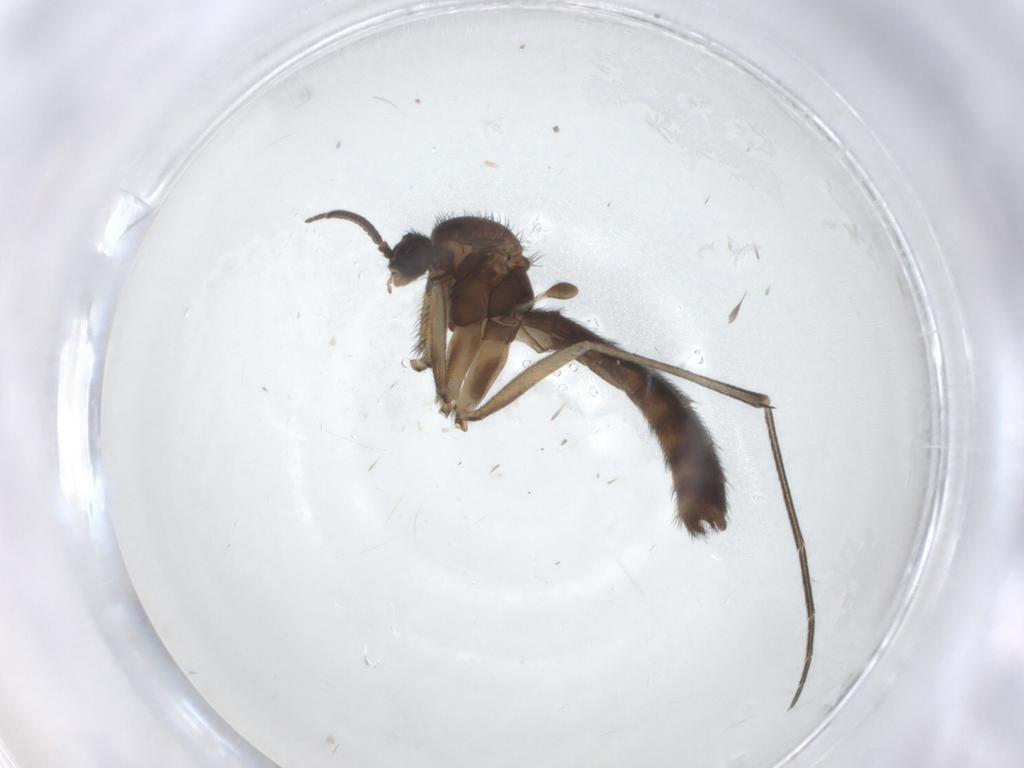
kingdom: Animalia
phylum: Arthropoda
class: Insecta
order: Diptera
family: Keroplatidae
